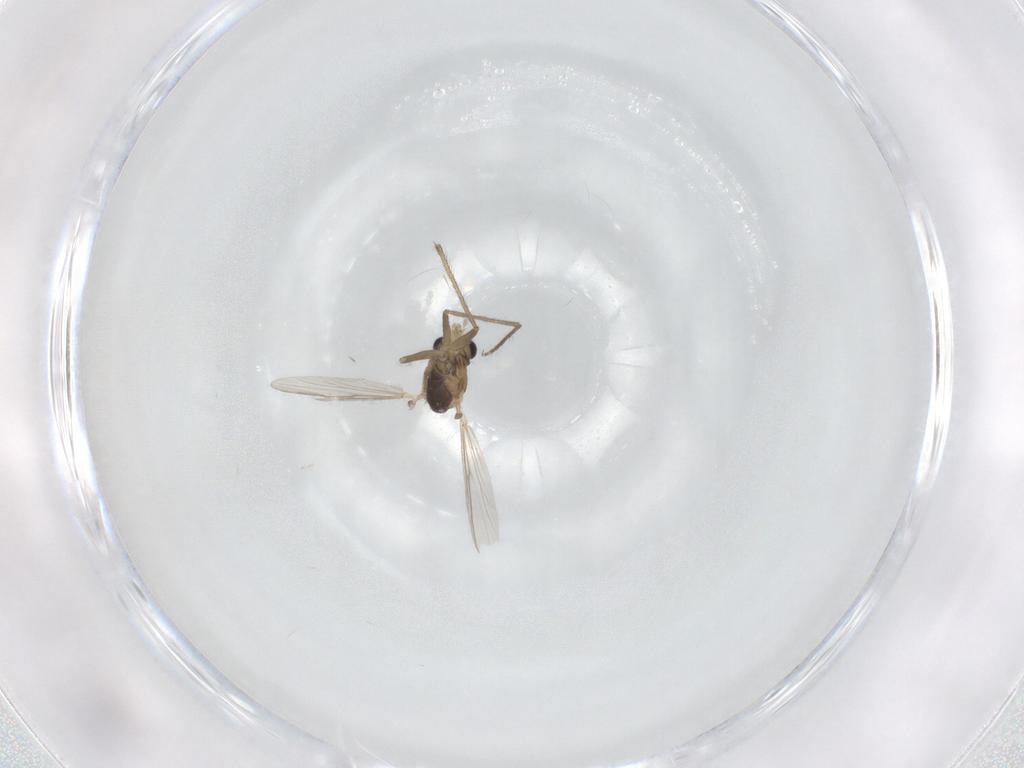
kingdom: Animalia
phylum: Arthropoda
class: Insecta
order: Diptera
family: Chironomidae
